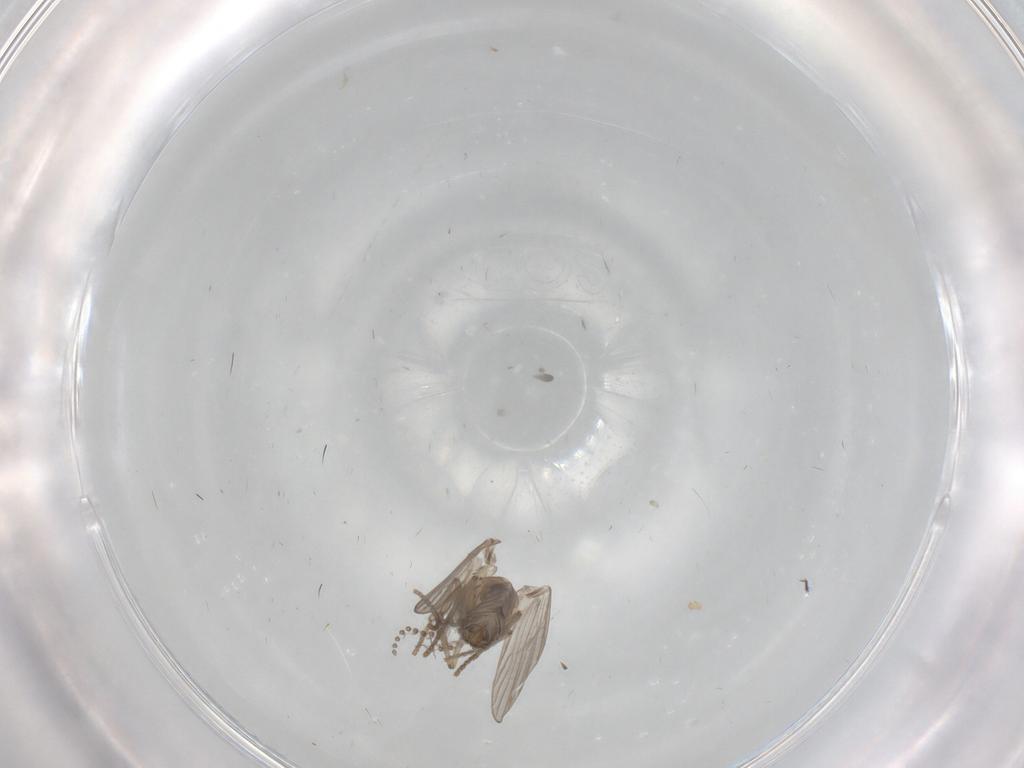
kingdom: Animalia
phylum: Arthropoda
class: Insecta
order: Diptera
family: Psychodidae
